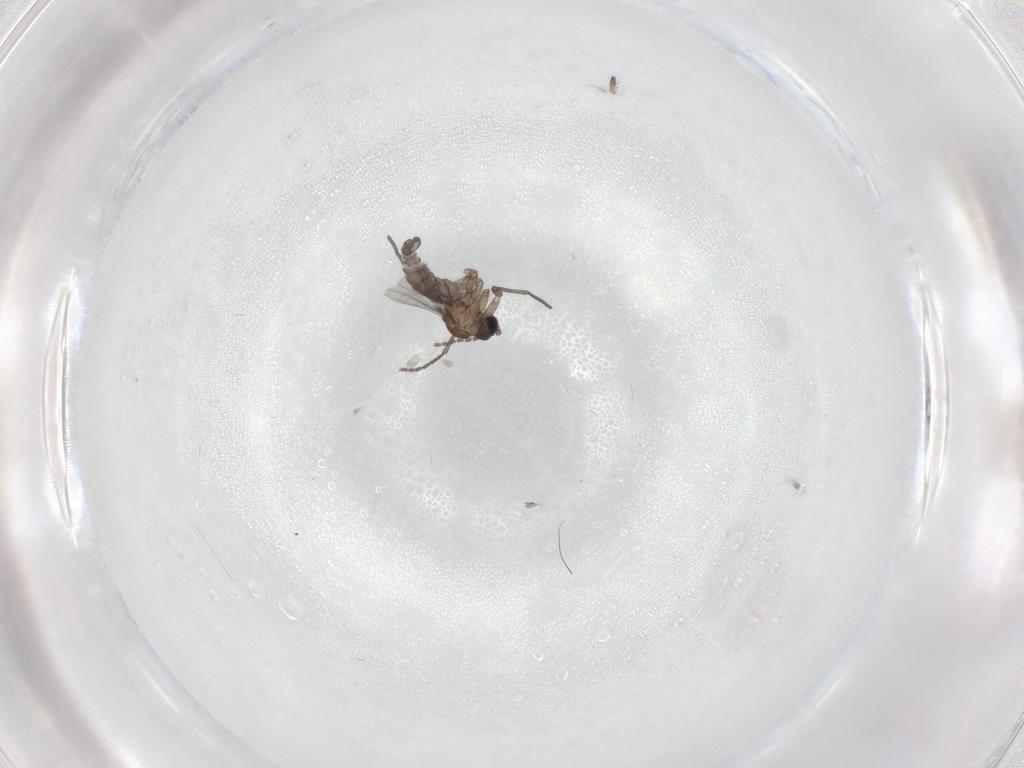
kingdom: Animalia
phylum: Arthropoda
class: Insecta
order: Diptera
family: Sciaridae
